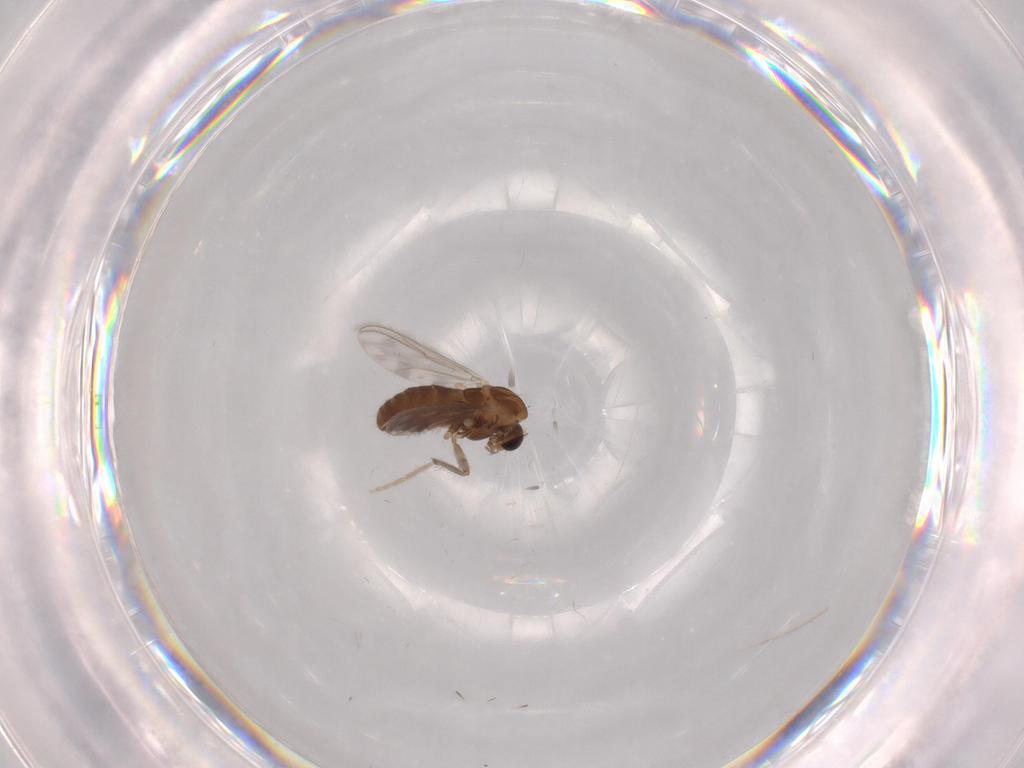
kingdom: Animalia
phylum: Arthropoda
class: Insecta
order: Diptera
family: Chironomidae
